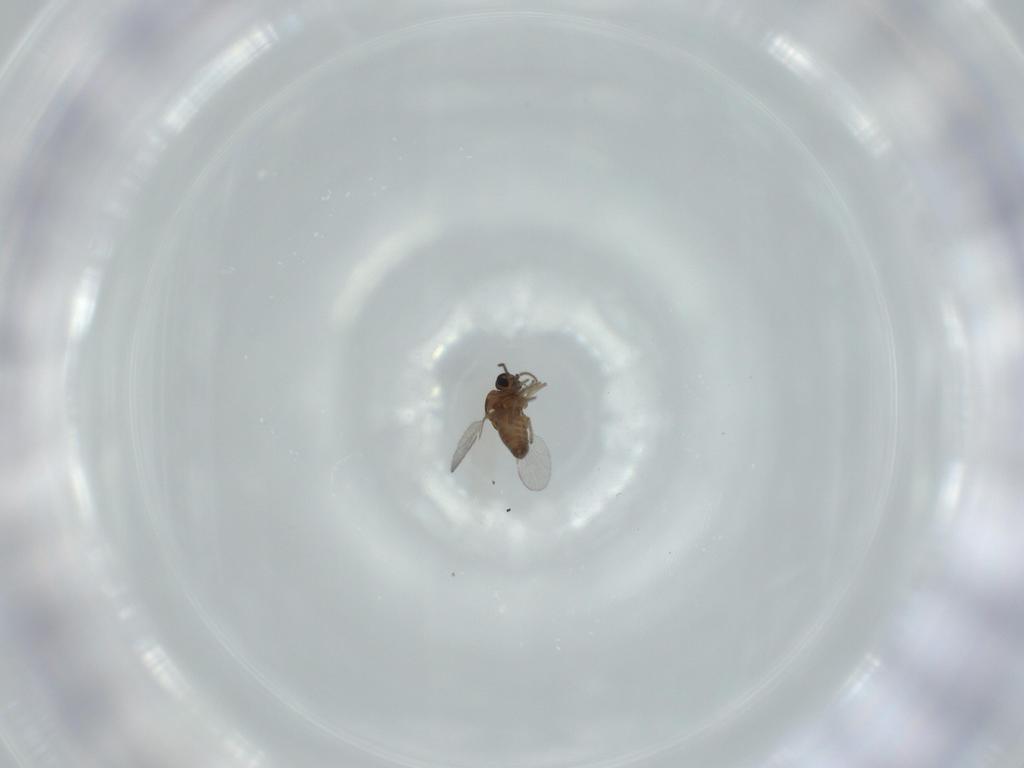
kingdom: Animalia
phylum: Arthropoda
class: Insecta
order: Diptera
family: Ceratopogonidae
